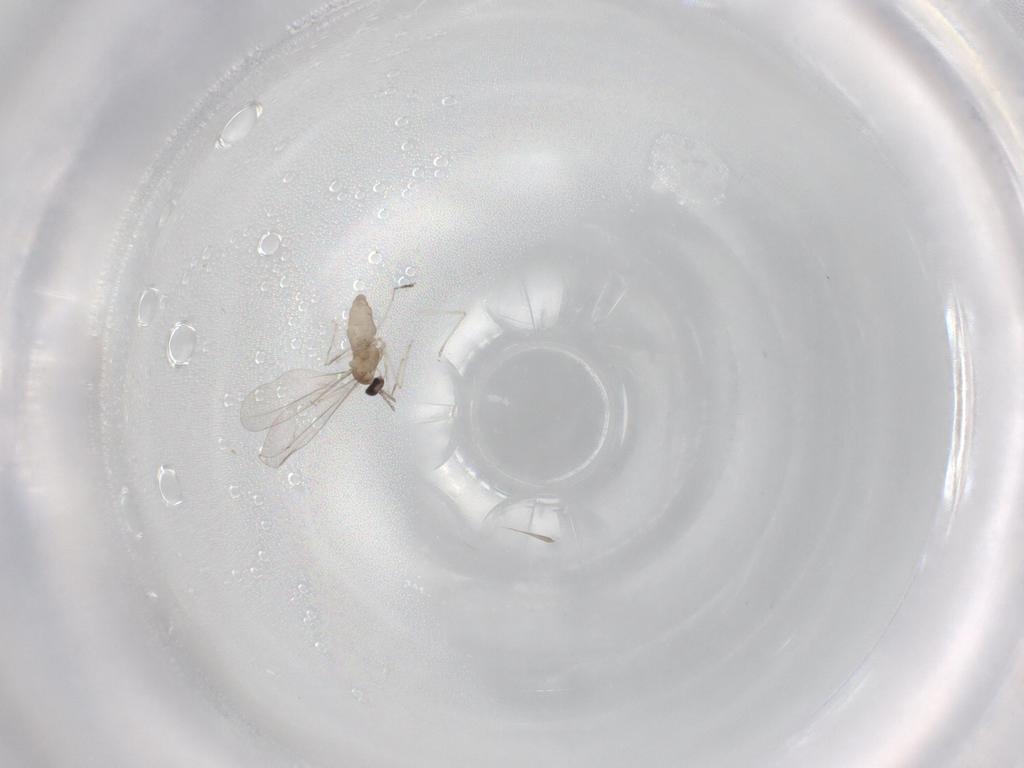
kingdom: Animalia
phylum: Arthropoda
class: Insecta
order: Diptera
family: Cecidomyiidae
